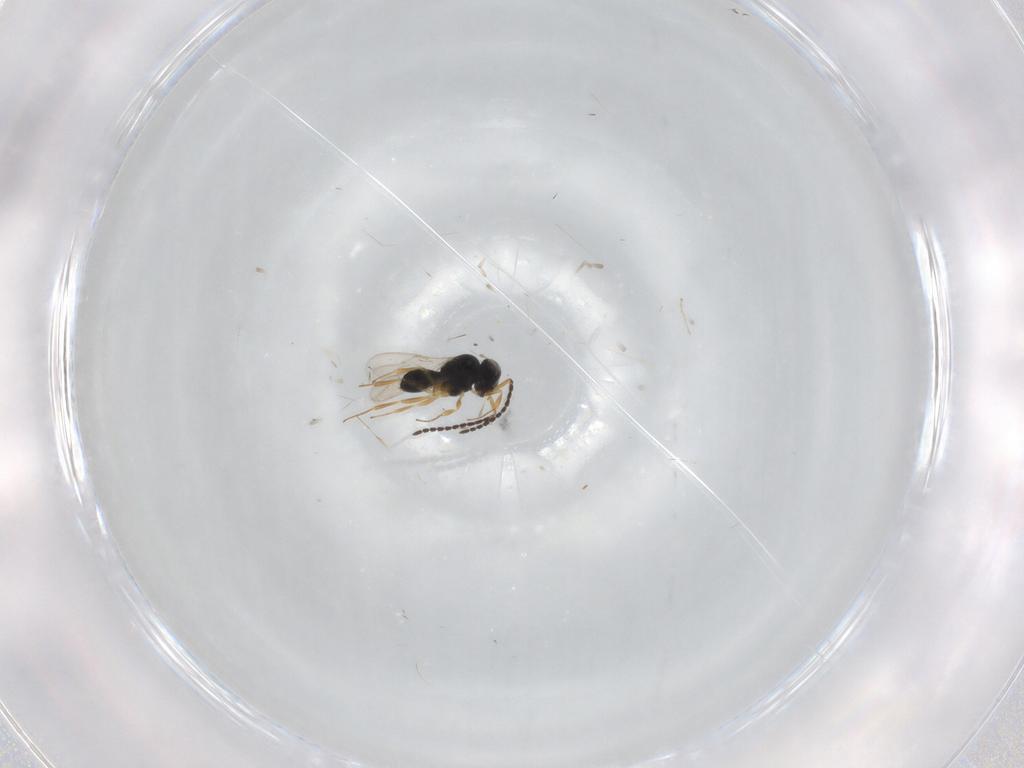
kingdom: Animalia
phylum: Arthropoda
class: Insecta
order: Hymenoptera
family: Scelionidae
